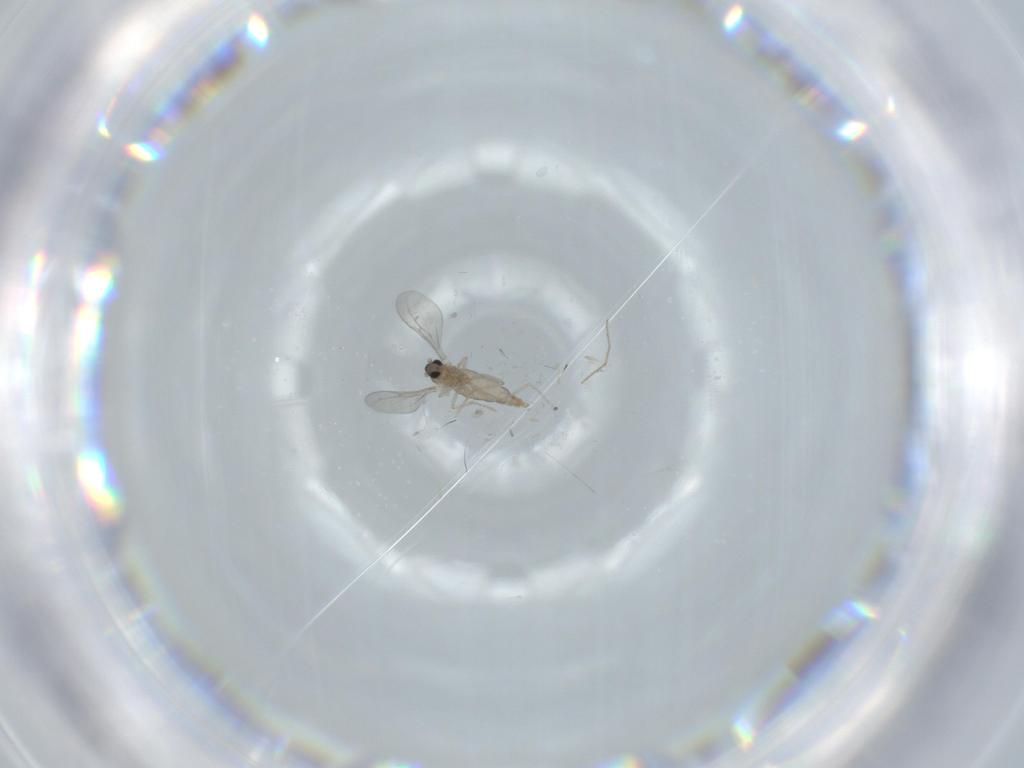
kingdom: Animalia
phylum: Arthropoda
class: Insecta
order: Diptera
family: Cecidomyiidae
